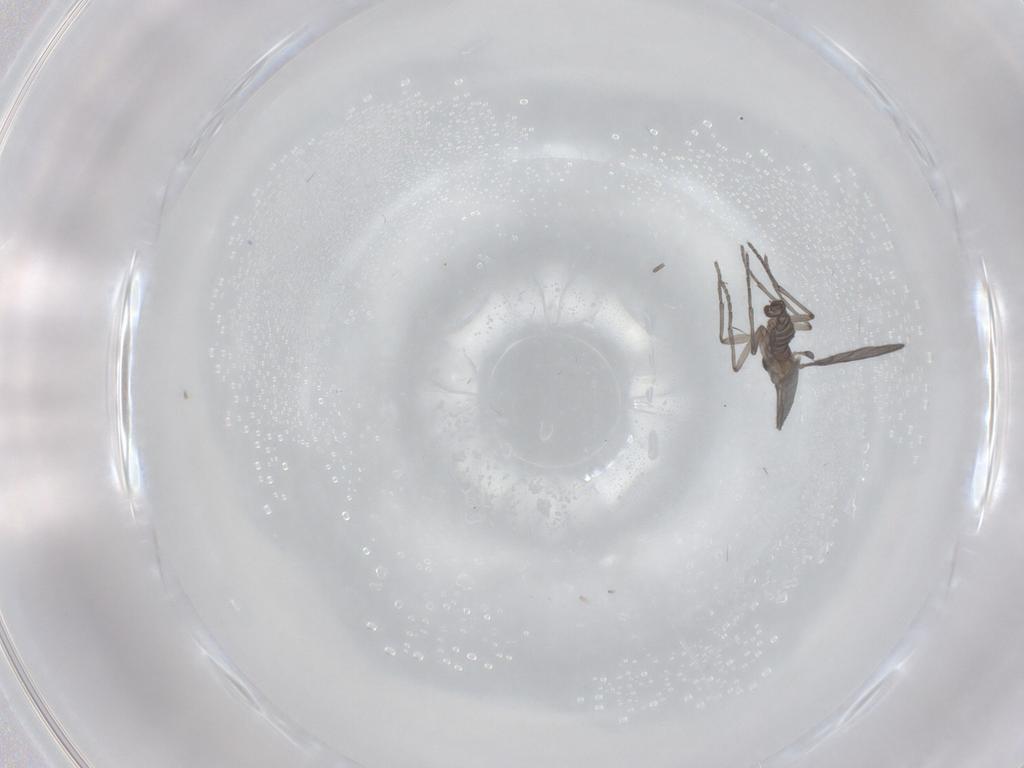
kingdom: Animalia
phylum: Arthropoda
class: Insecta
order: Diptera
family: Sciaridae
